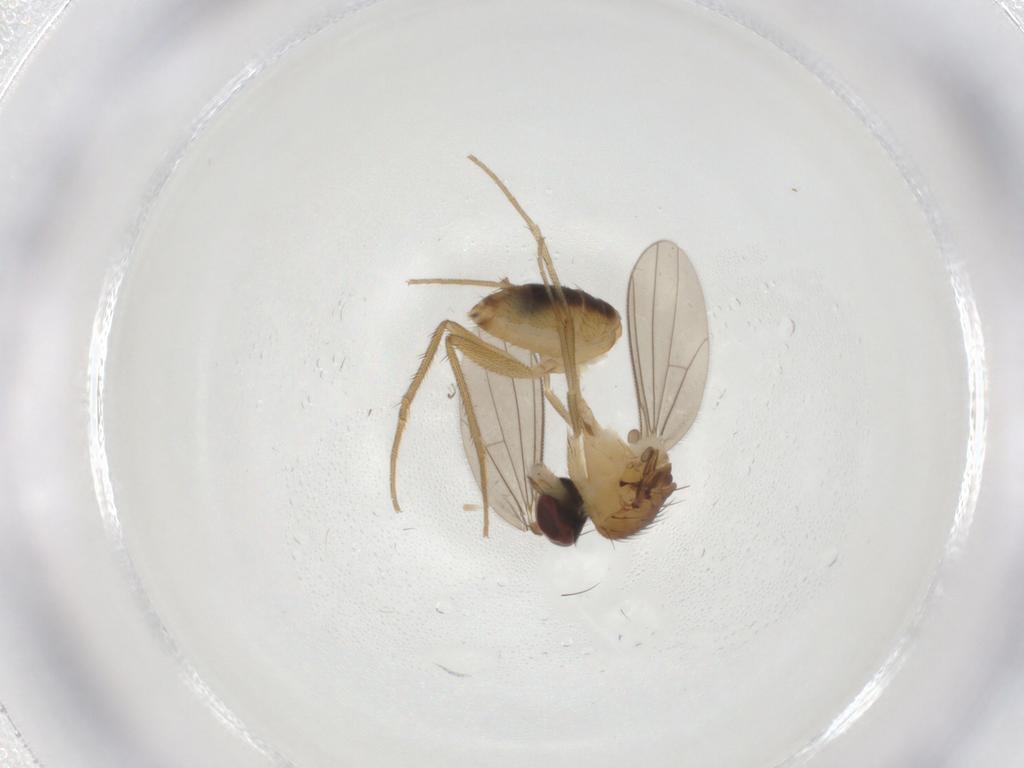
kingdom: Animalia
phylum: Arthropoda
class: Insecta
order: Diptera
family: Dolichopodidae
